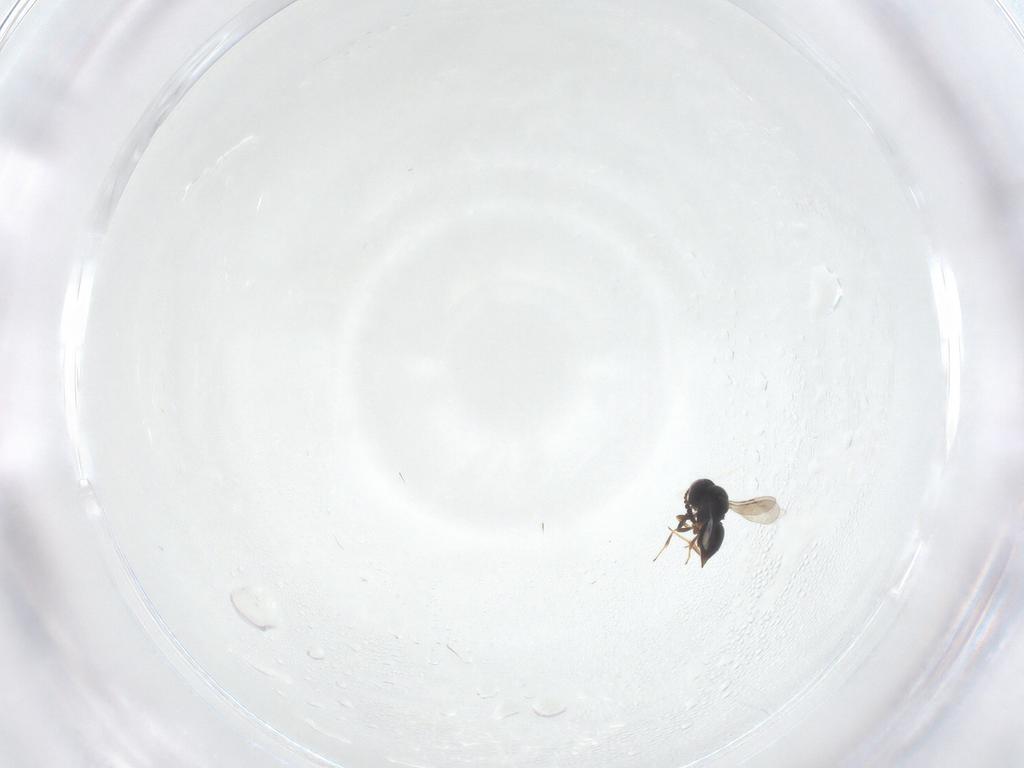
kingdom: Animalia
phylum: Arthropoda
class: Insecta
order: Diptera
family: Sciaridae
